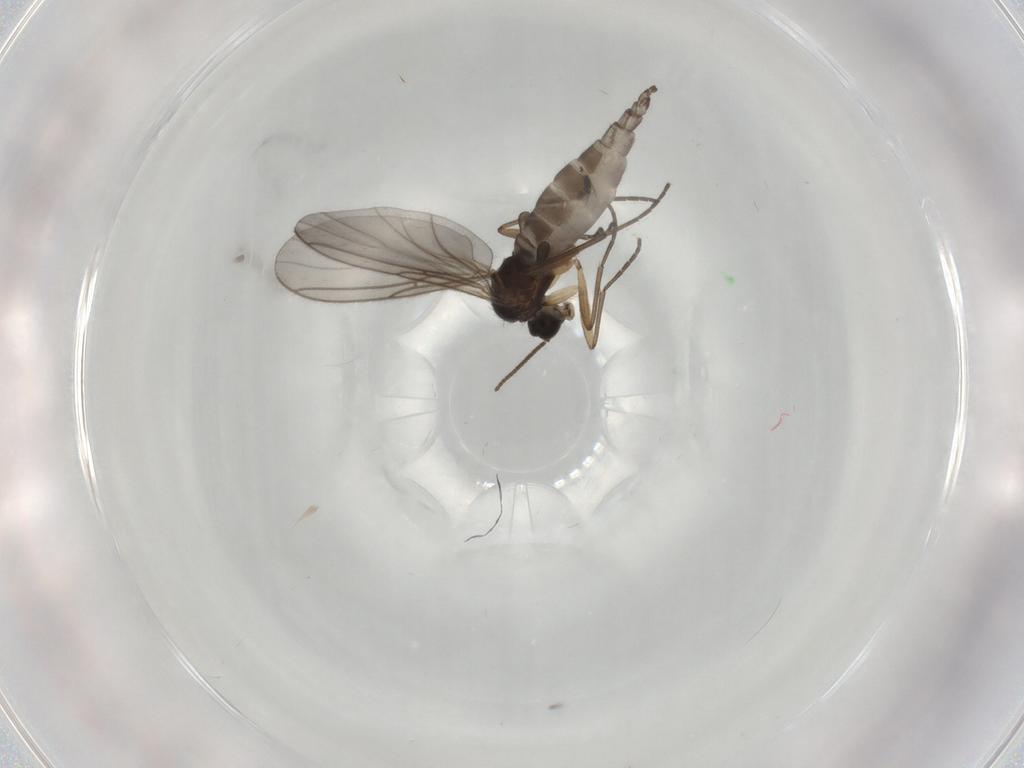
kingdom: Animalia
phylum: Arthropoda
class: Insecta
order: Diptera
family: Sciaridae
